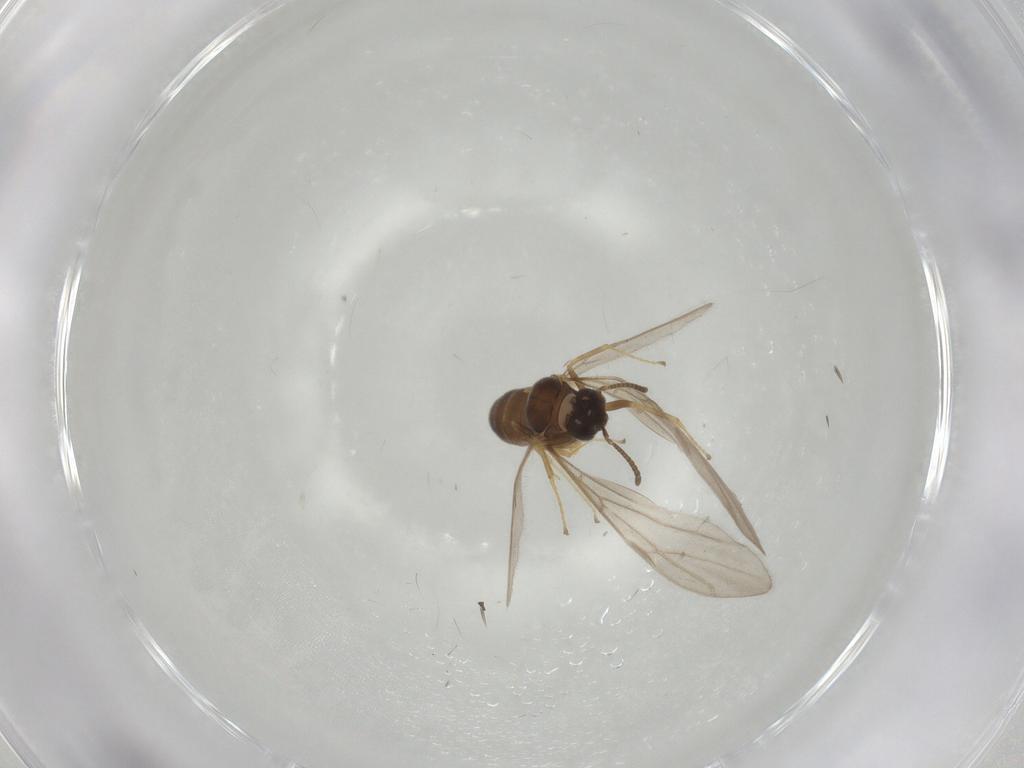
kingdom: Animalia
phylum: Arthropoda
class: Insecta
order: Hymenoptera
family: Formicidae
